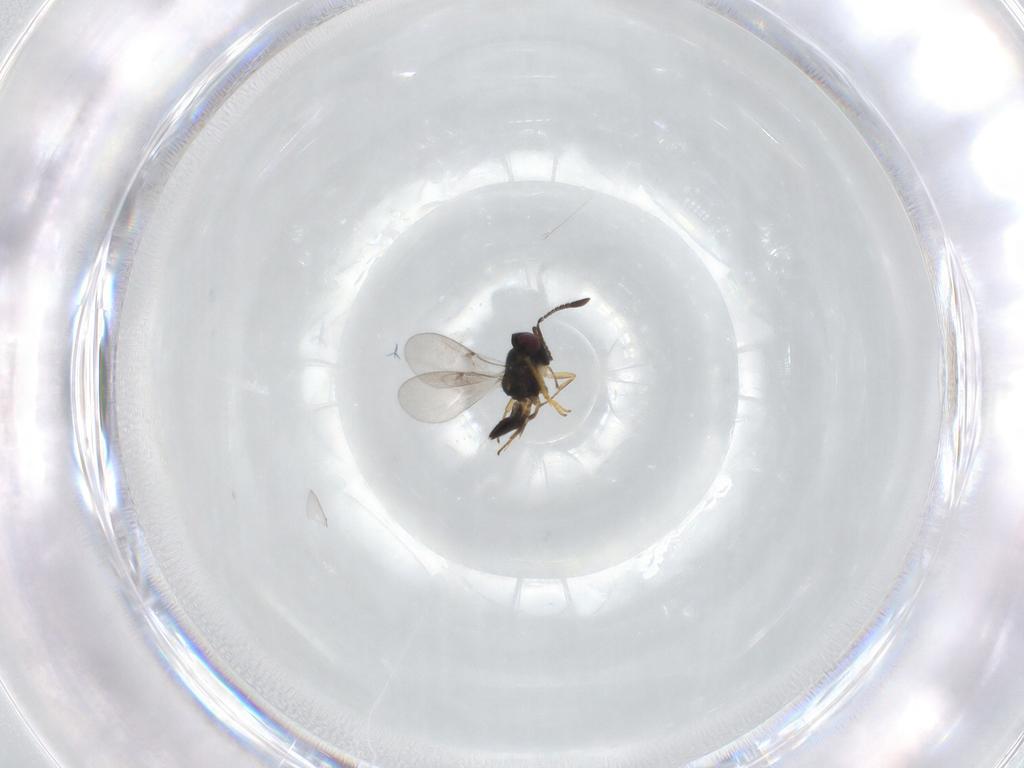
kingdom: Animalia
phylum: Arthropoda
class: Insecta
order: Hymenoptera
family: Encyrtidae
